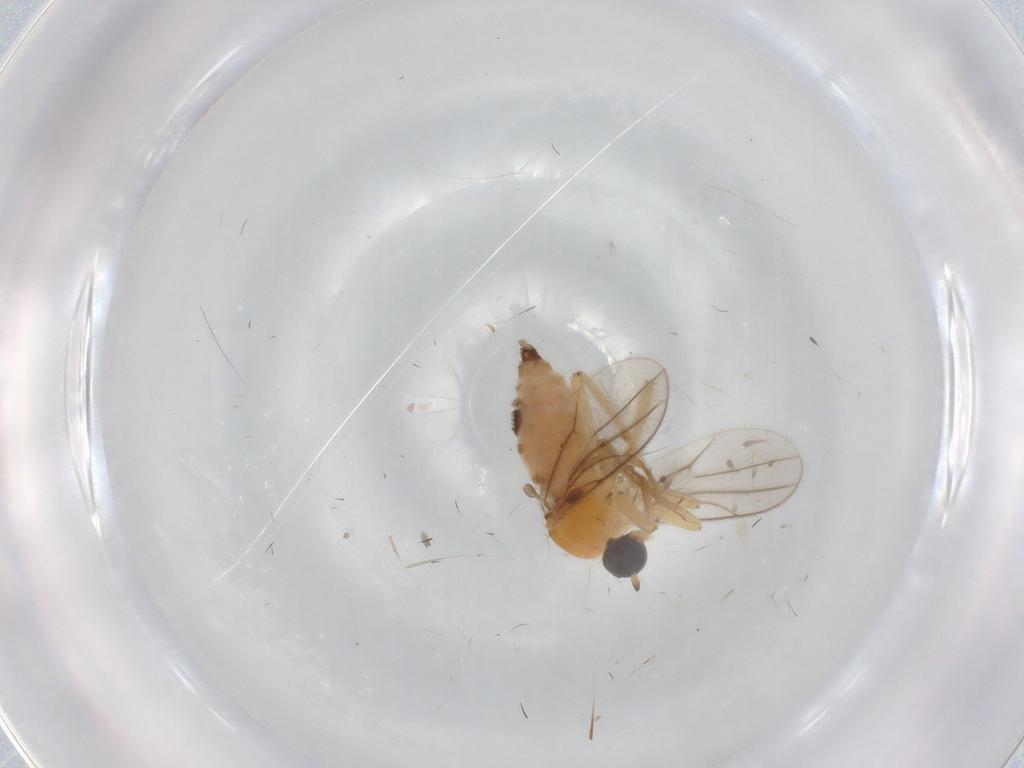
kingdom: Animalia
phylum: Arthropoda
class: Insecta
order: Diptera
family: Hybotidae
